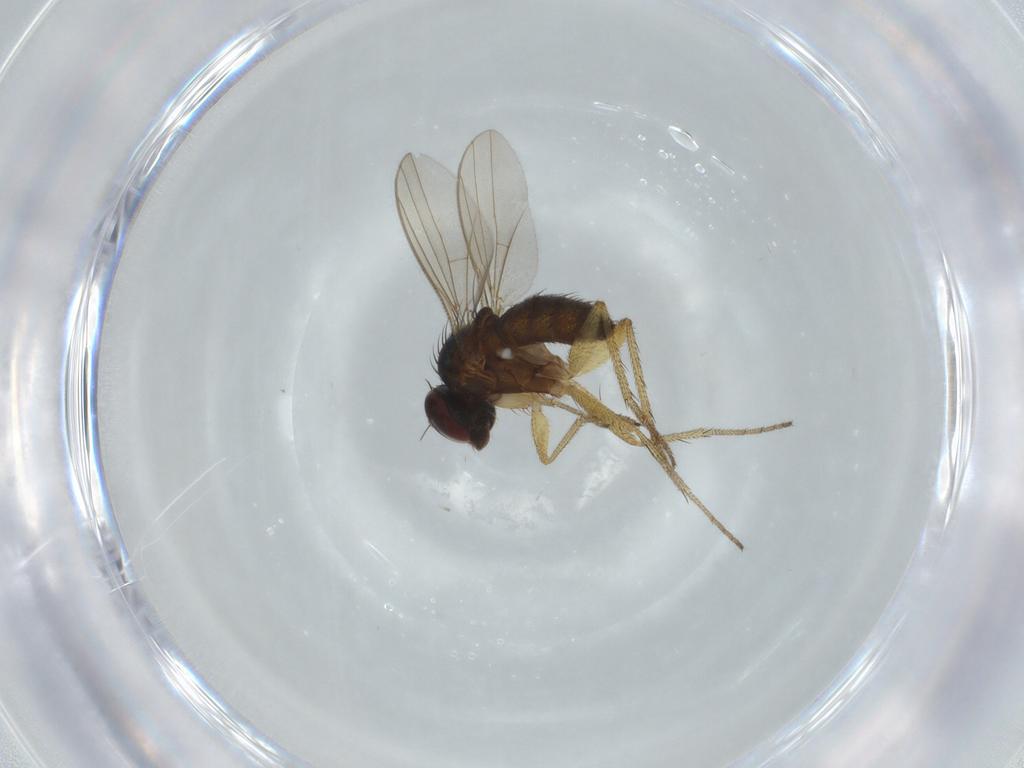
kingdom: Animalia
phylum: Arthropoda
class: Insecta
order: Diptera
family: Dolichopodidae
